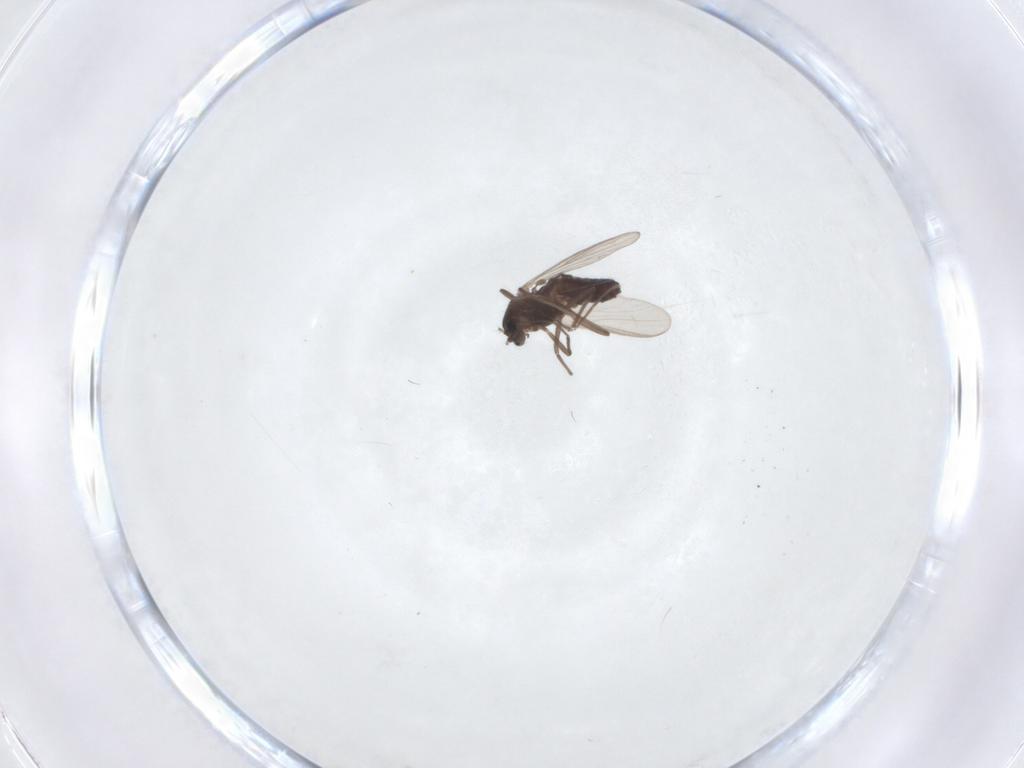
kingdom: Animalia
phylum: Arthropoda
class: Insecta
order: Diptera
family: Chironomidae
